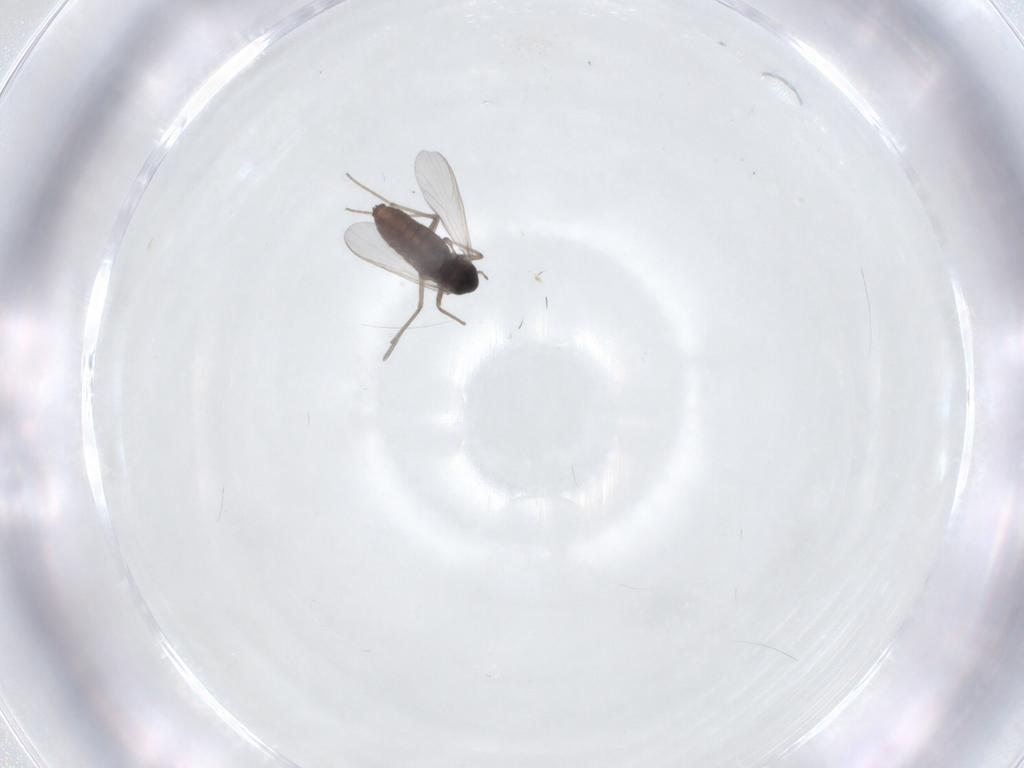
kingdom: Animalia
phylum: Arthropoda
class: Insecta
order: Diptera
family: Chironomidae
